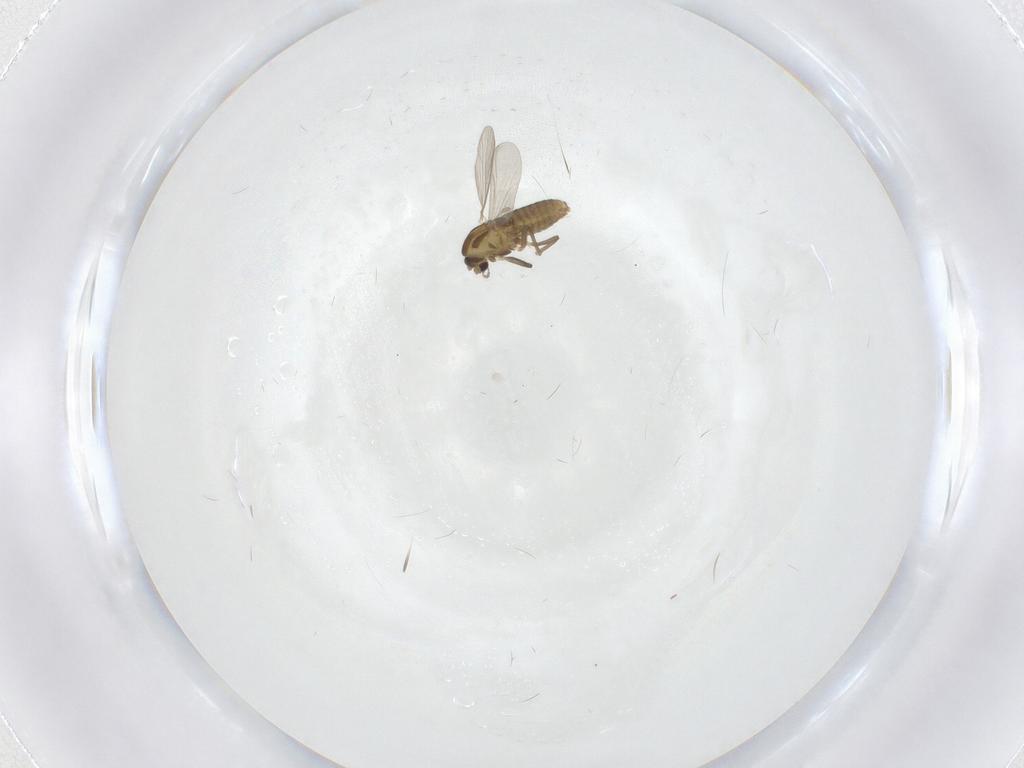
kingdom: Animalia
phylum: Arthropoda
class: Insecta
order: Diptera
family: Chironomidae
